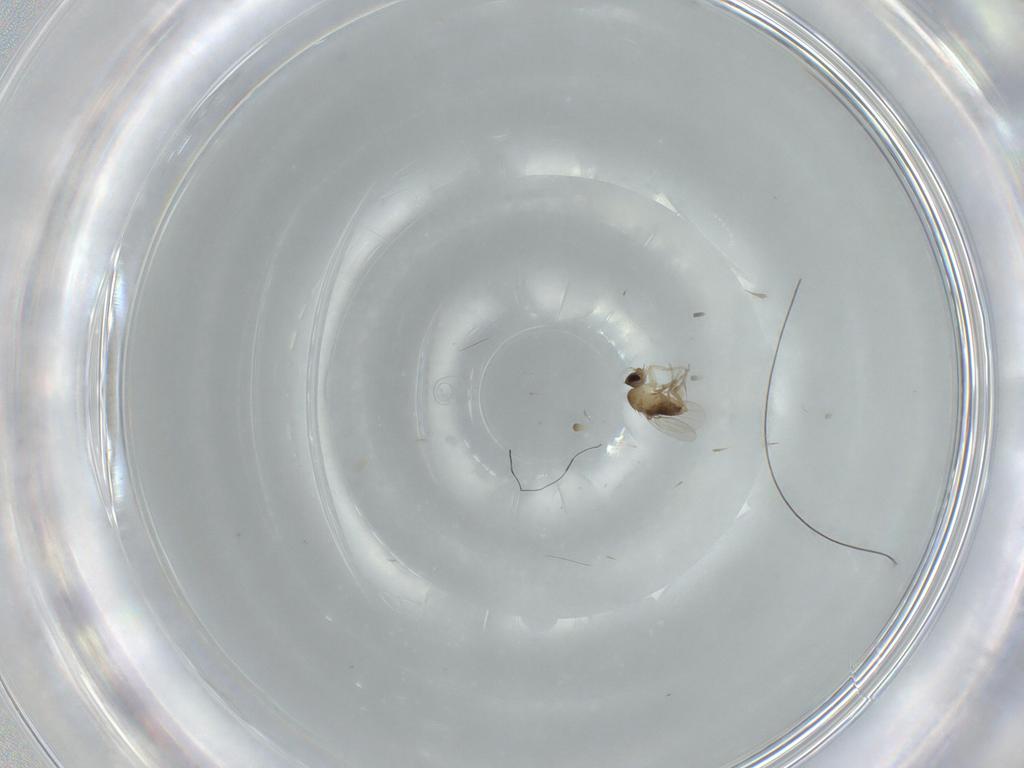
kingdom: Animalia
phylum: Arthropoda
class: Insecta
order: Diptera
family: Phoridae
